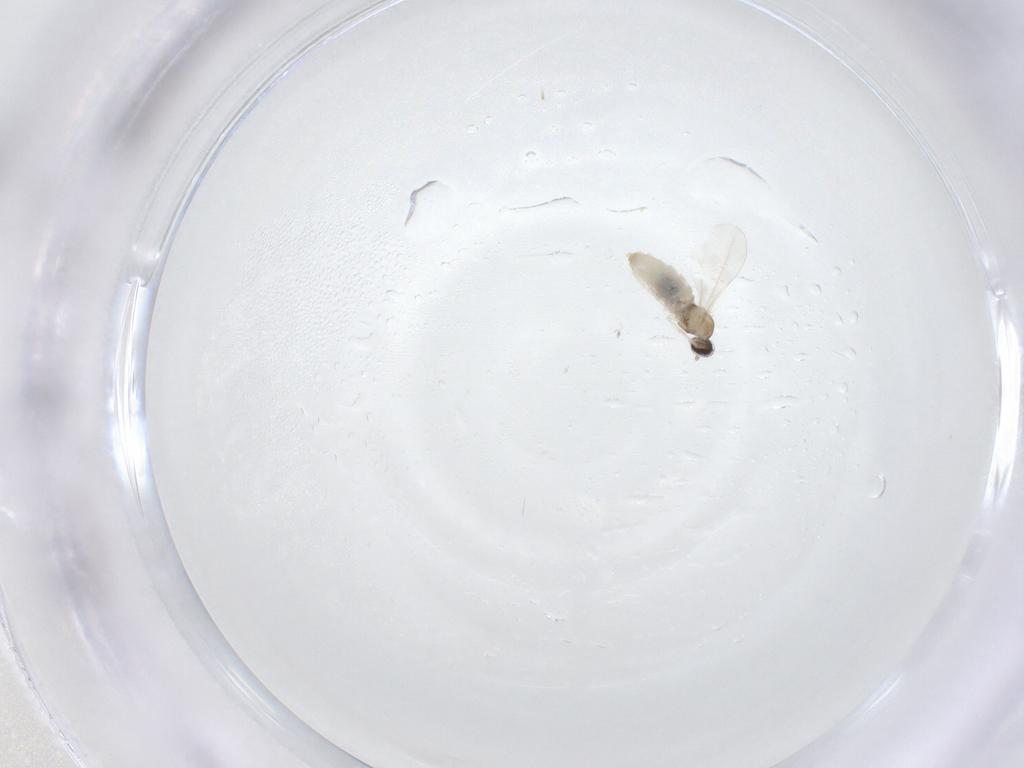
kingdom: Animalia
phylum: Arthropoda
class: Insecta
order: Diptera
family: Cecidomyiidae
